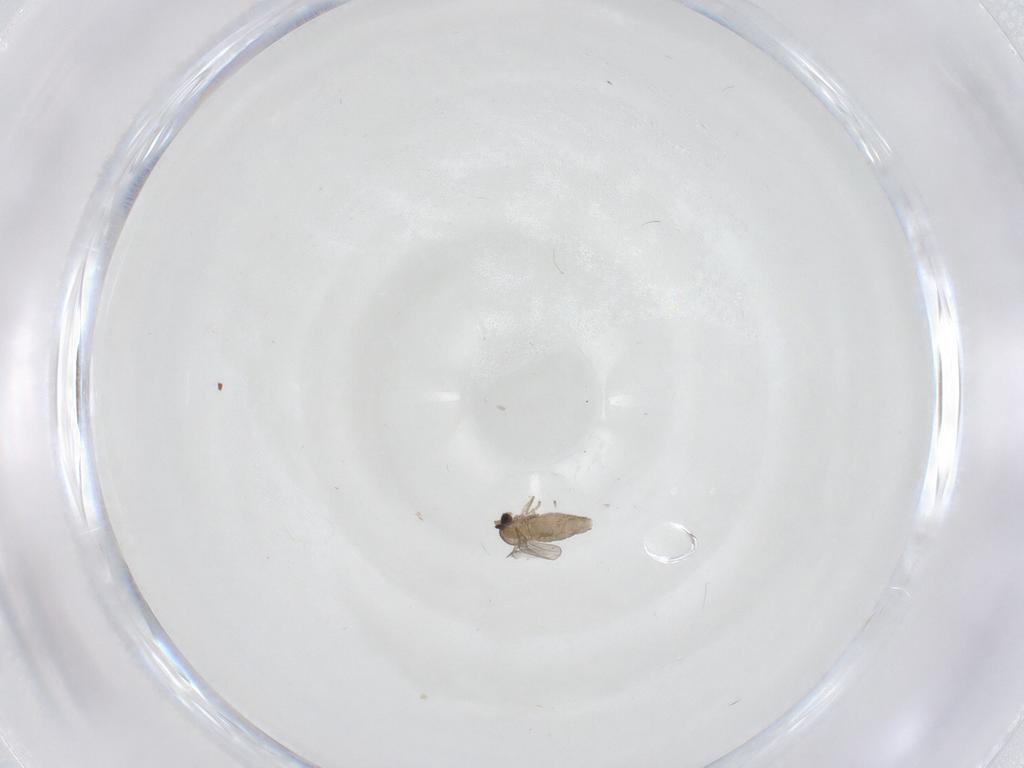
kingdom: Animalia
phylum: Arthropoda
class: Insecta
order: Diptera
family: Cecidomyiidae
